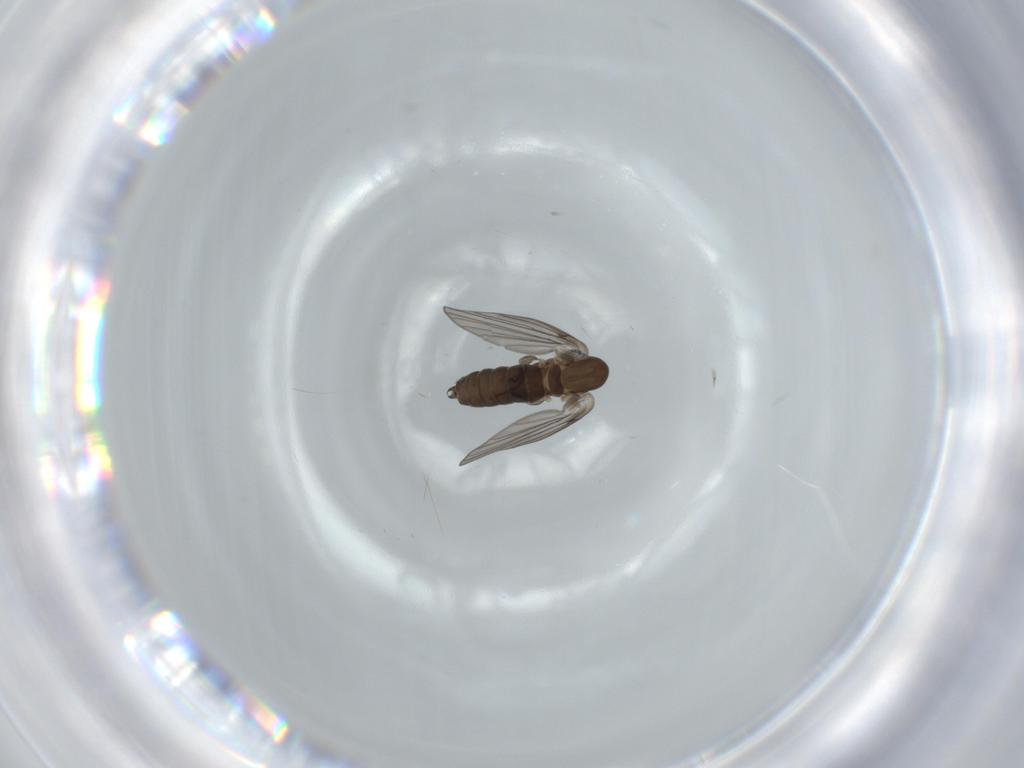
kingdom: Animalia
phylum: Arthropoda
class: Insecta
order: Diptera
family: Psychodidae
